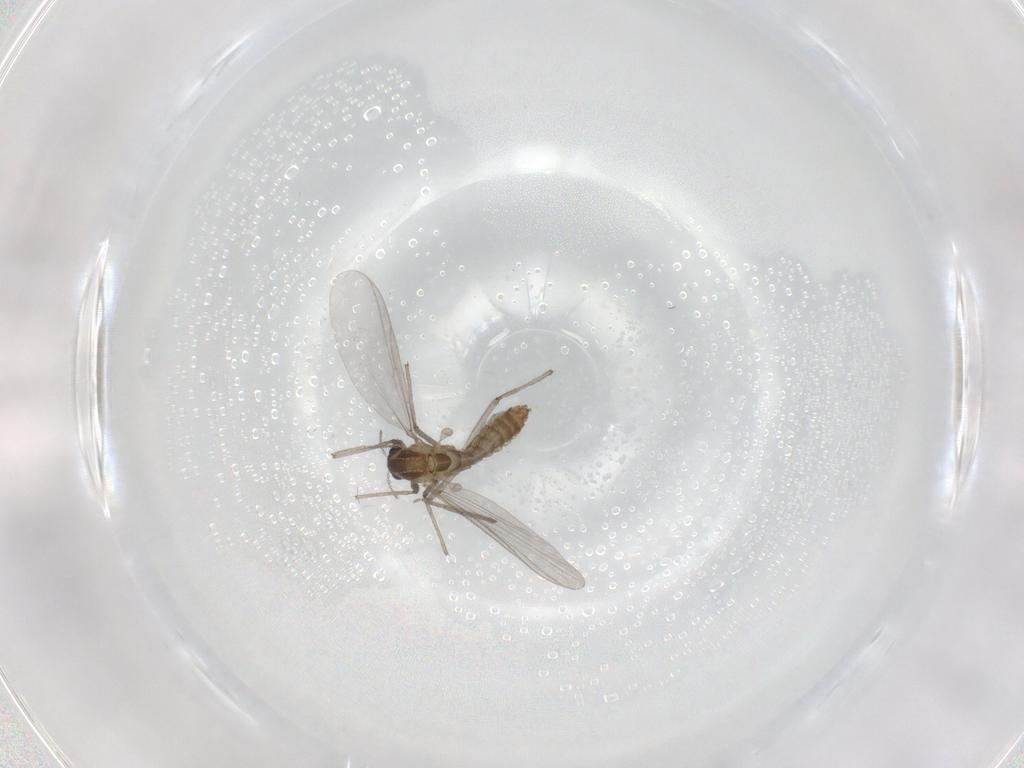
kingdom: Animalia
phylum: Arthropoda
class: Insecta
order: Diptera
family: Chironomidae
